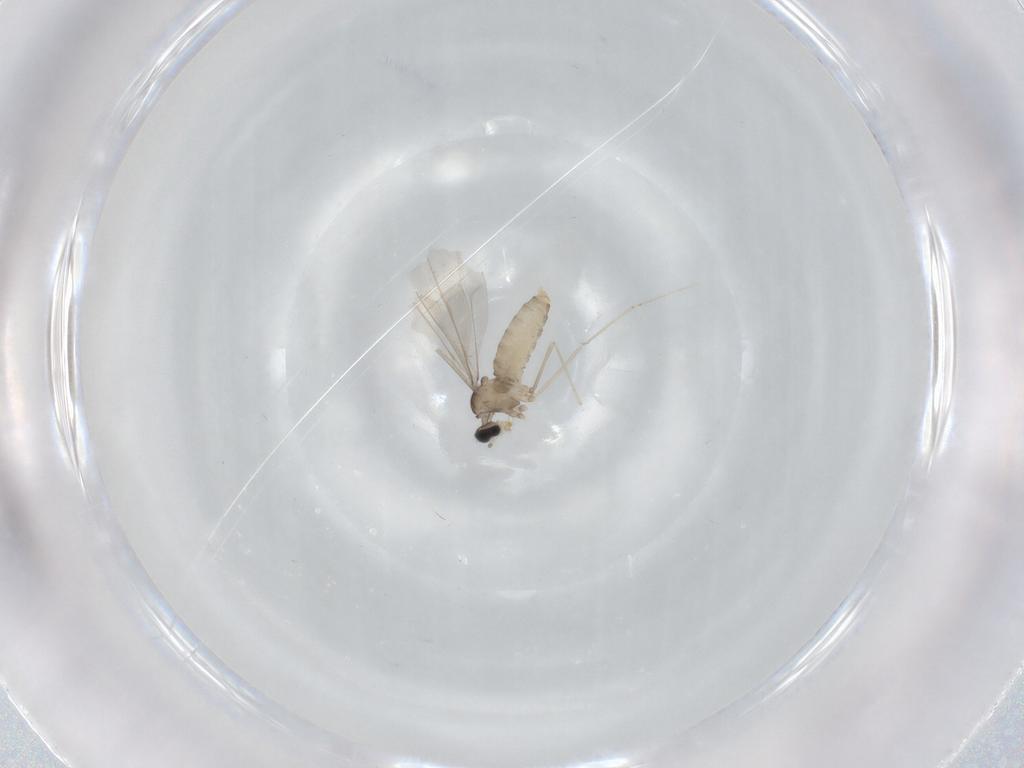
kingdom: Animalia
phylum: Arthropoda
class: Insecta
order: Diptera
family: Cecidomyiidae
